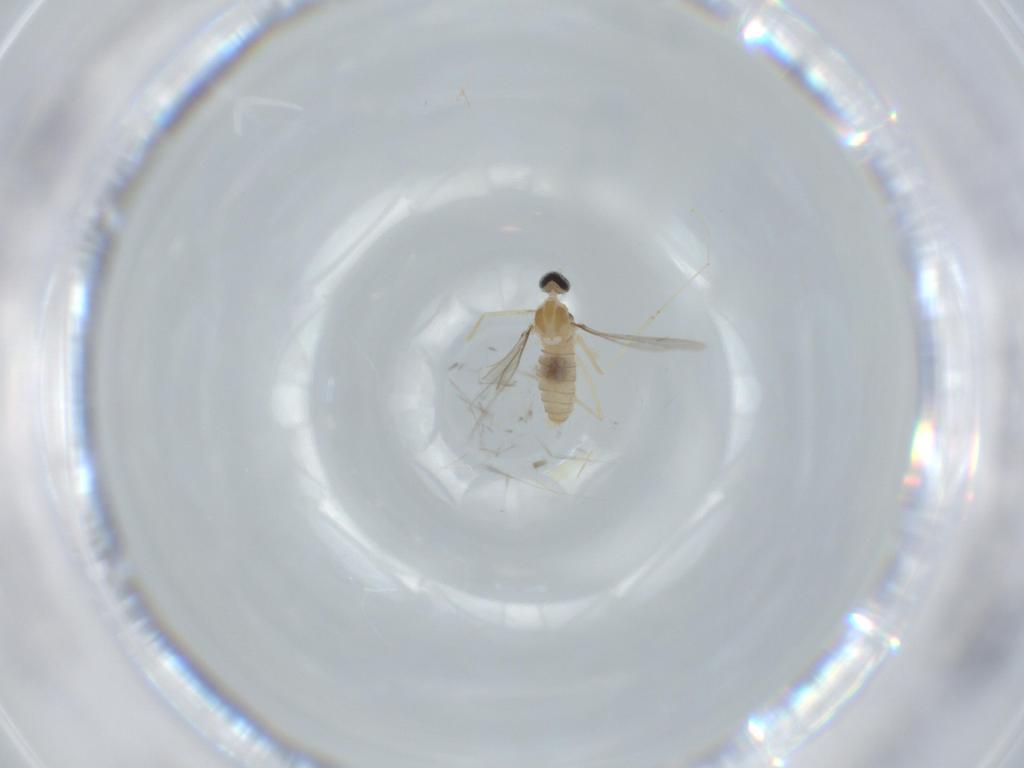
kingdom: Animalia
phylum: Arthropoda
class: Insecta
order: Diptera
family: Cecidomyiidae
